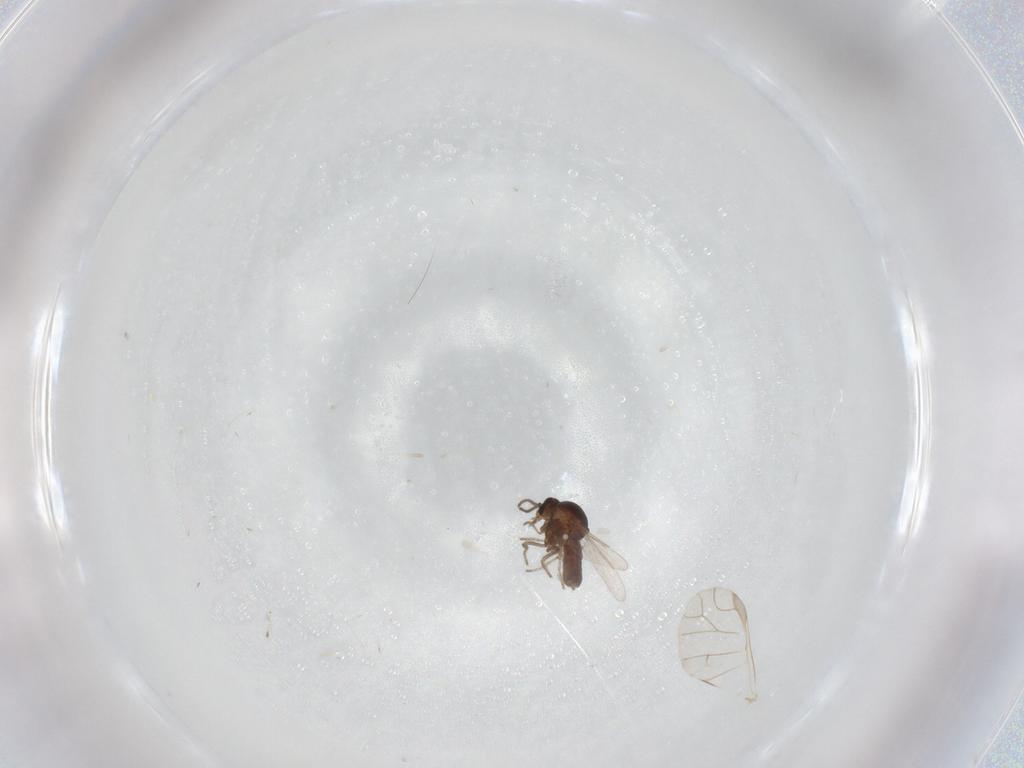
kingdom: Animalia
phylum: Arthropoda
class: Insecta
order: Diptera
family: Ceratopogonidae
